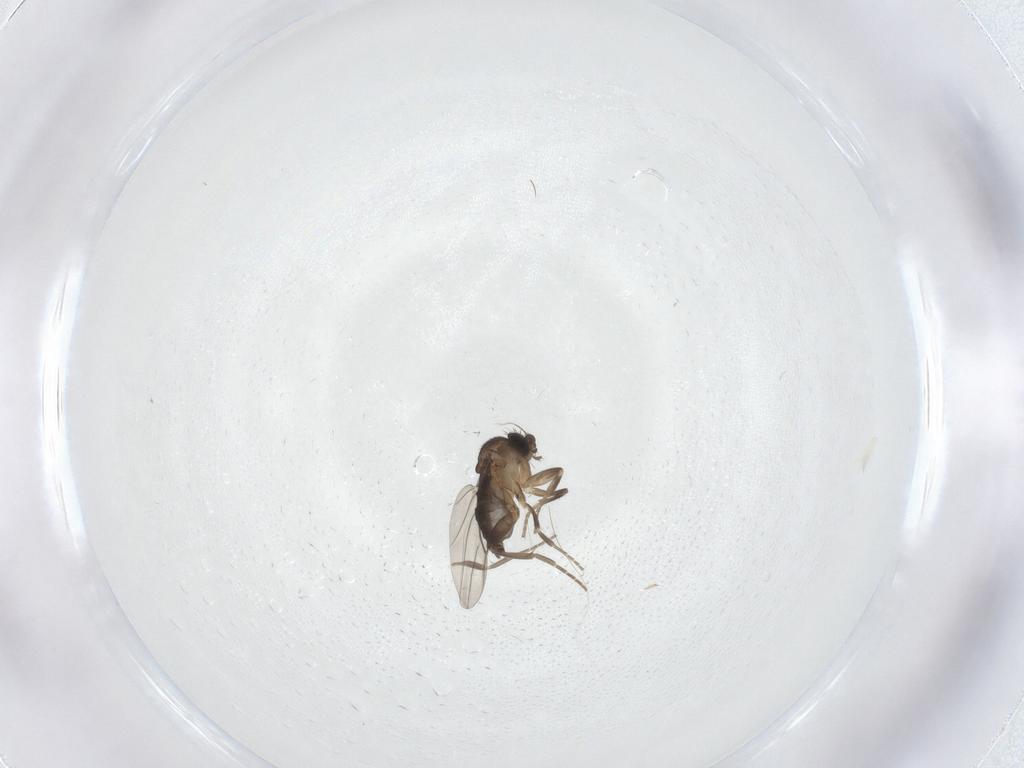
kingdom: Animalia
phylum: Arthropoda
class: Insecta
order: Diptera
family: Phoridae
